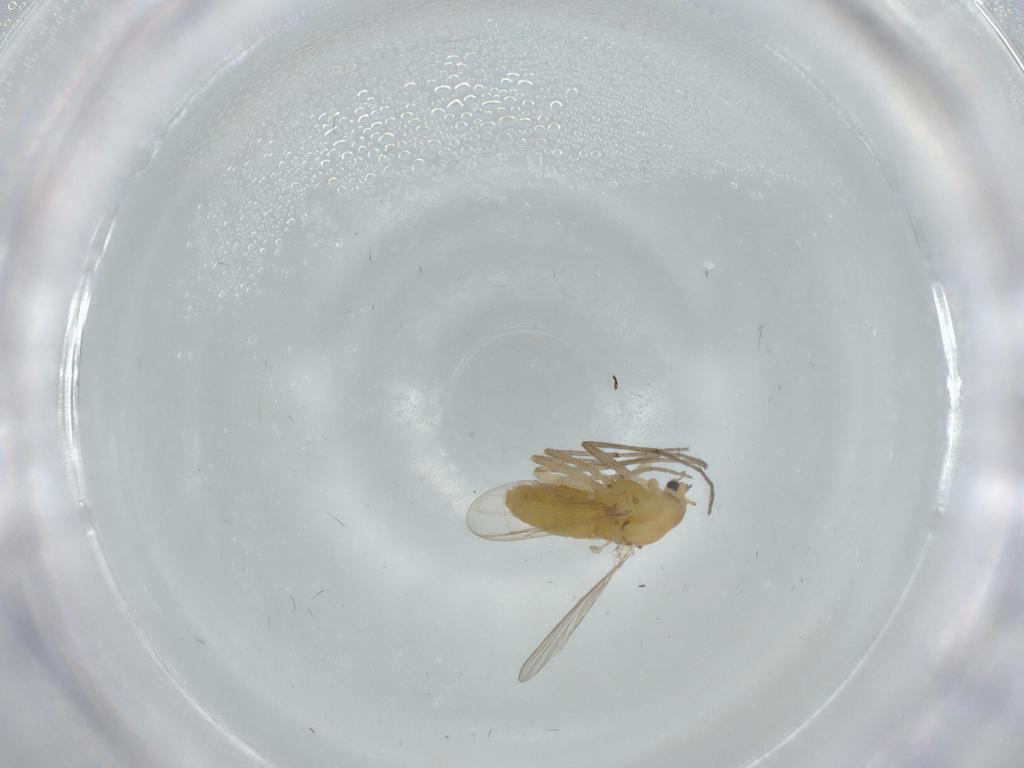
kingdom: Animalia
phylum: Arthropoda
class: Insecta
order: Diptera
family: Chironomidae
